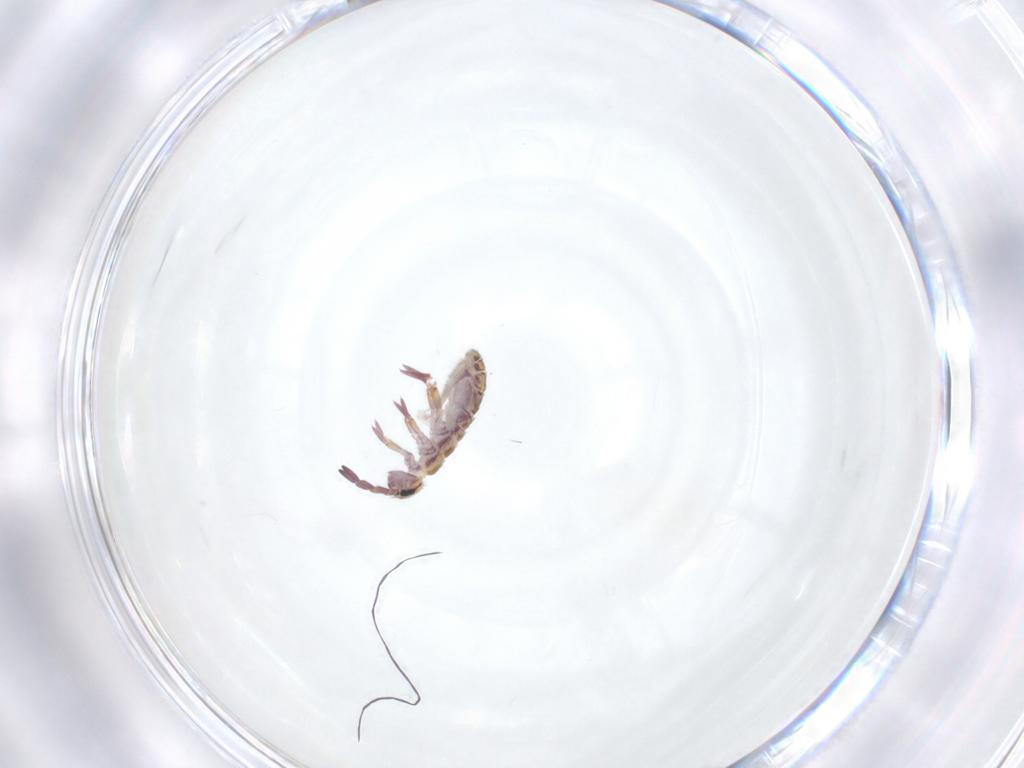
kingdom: Animalia
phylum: Arthropoda
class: Collembola
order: Entomobryomorpha
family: Isotomidae
